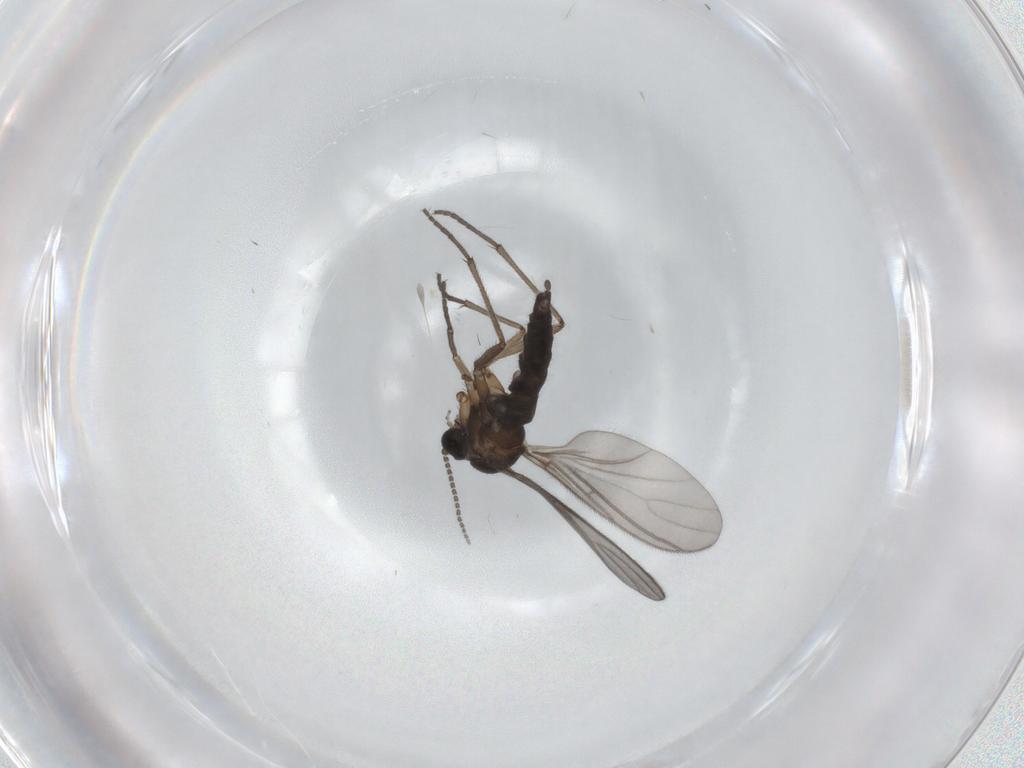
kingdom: Animalia
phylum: Arthropoda
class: Insecta
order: Diptera
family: Sciaridae
